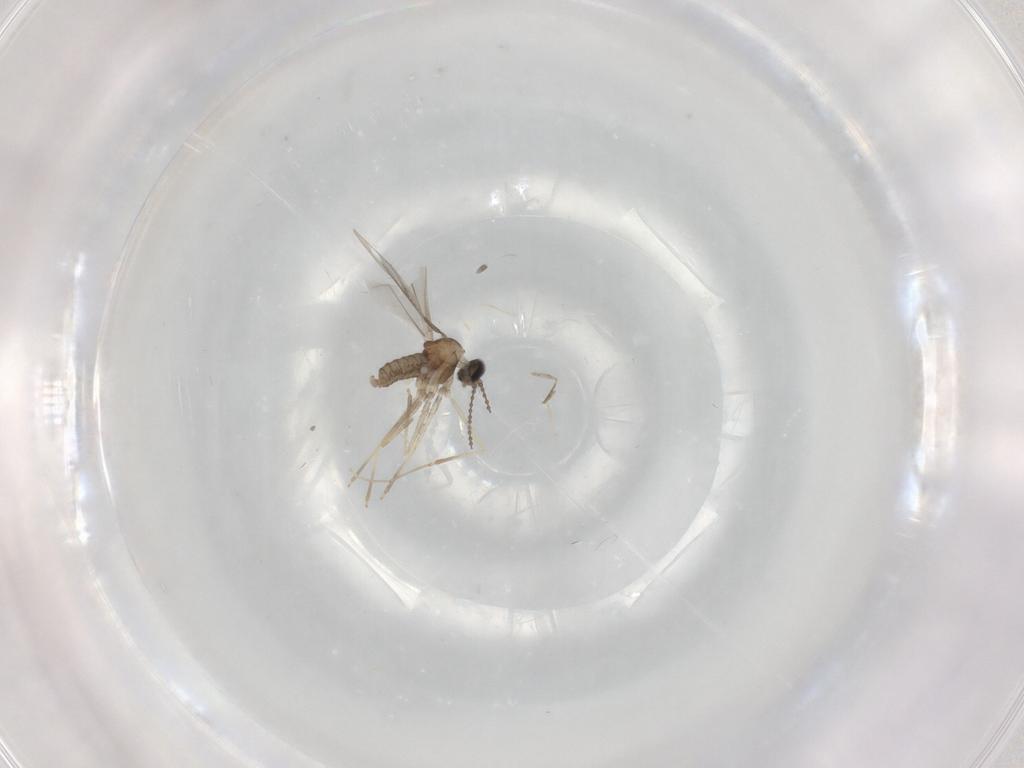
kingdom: Animalia
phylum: Arthropoda
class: Insecta
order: Diptera
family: Cecidomyiidae
